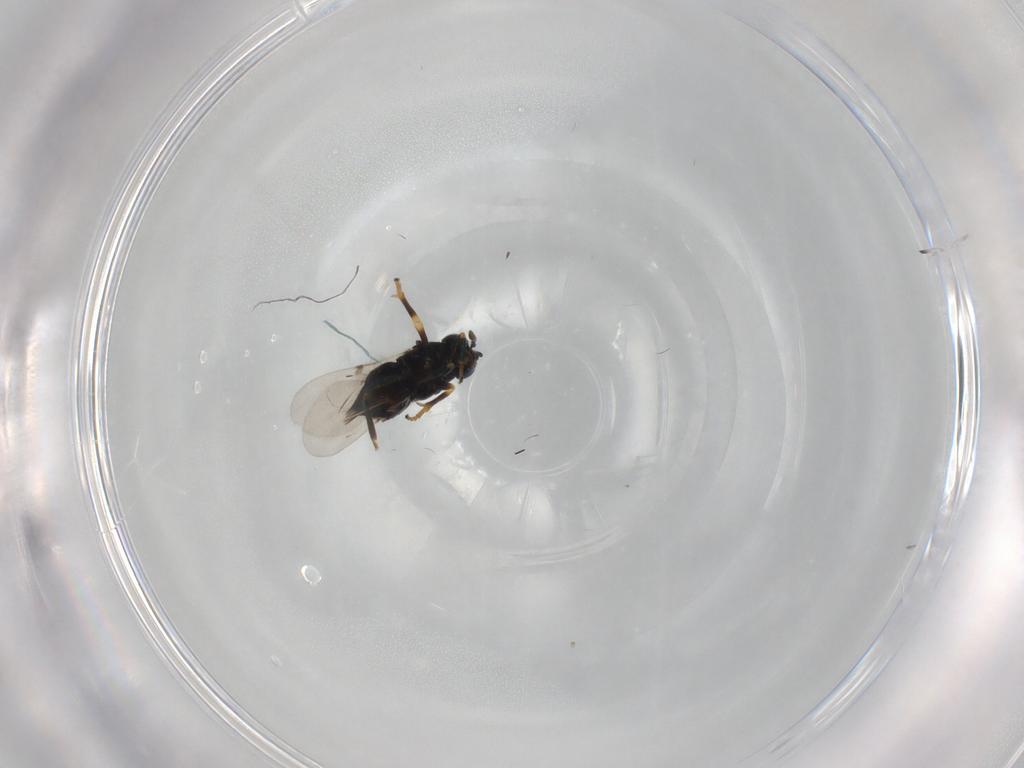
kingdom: Animalia
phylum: Arthropoda
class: Insecta
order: Hymenoptera
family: Encyrtidae
